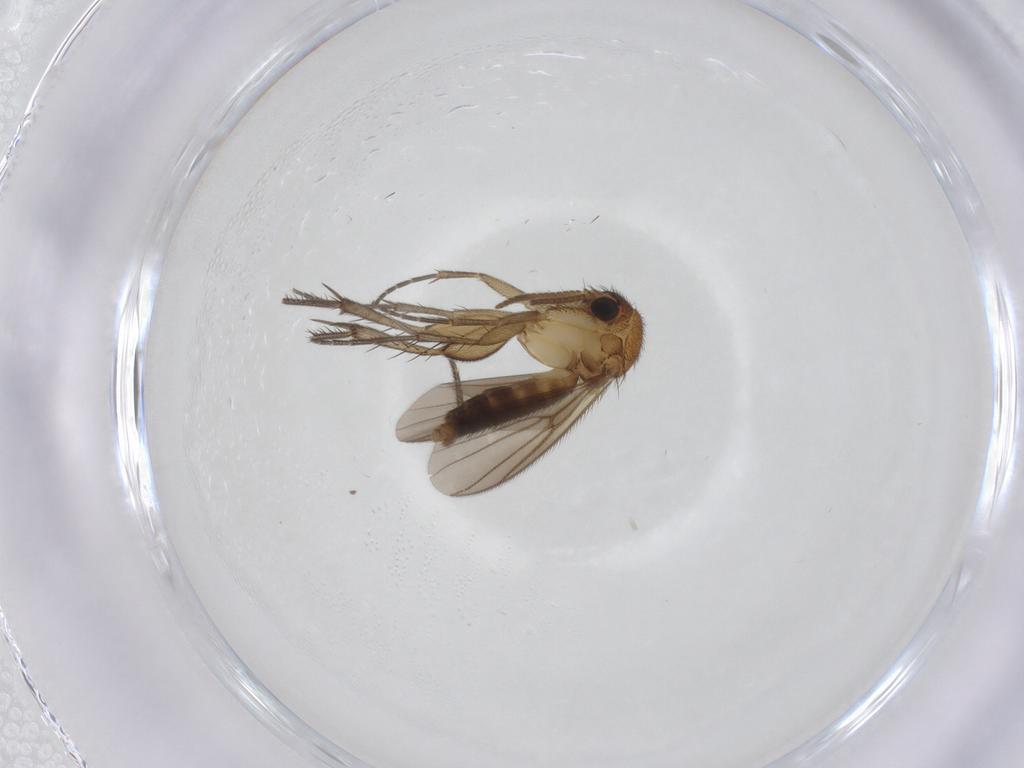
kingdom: Animalia
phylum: Arthropoda
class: Insecta
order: Diptera
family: Mycetophilidae
